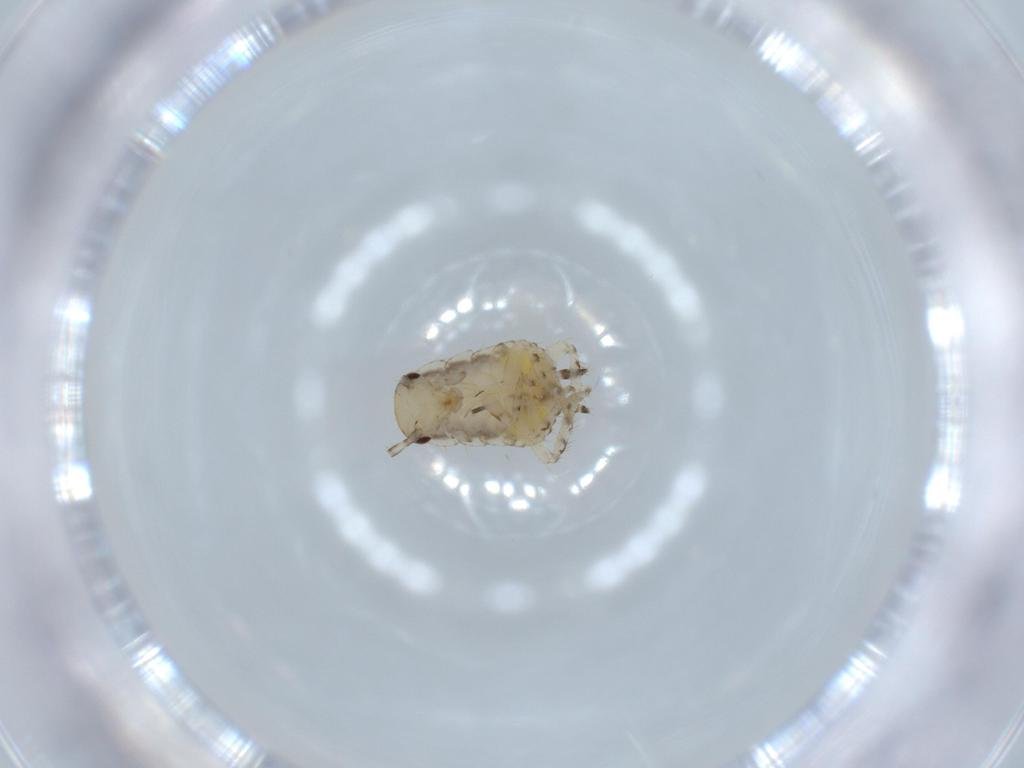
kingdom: Animalia
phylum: Arthropoda
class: Insecta
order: Blattodea
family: Ectobiidae
